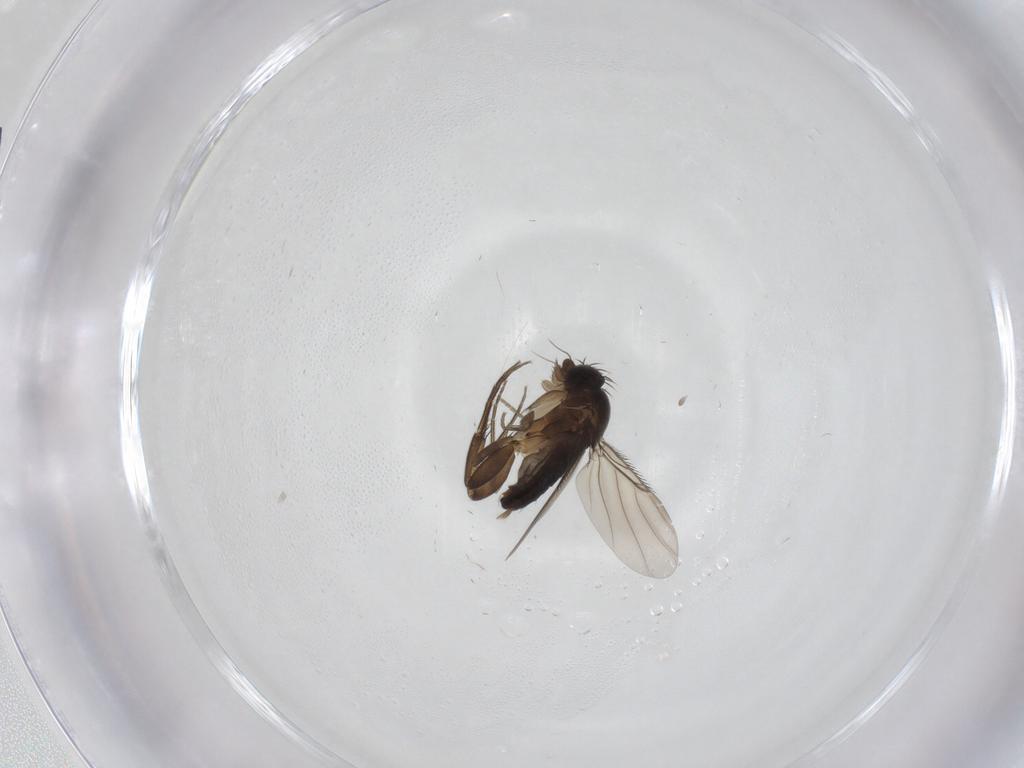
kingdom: Animalia
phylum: Arthropoda
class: Insecta
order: Diptera
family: Phoridae
